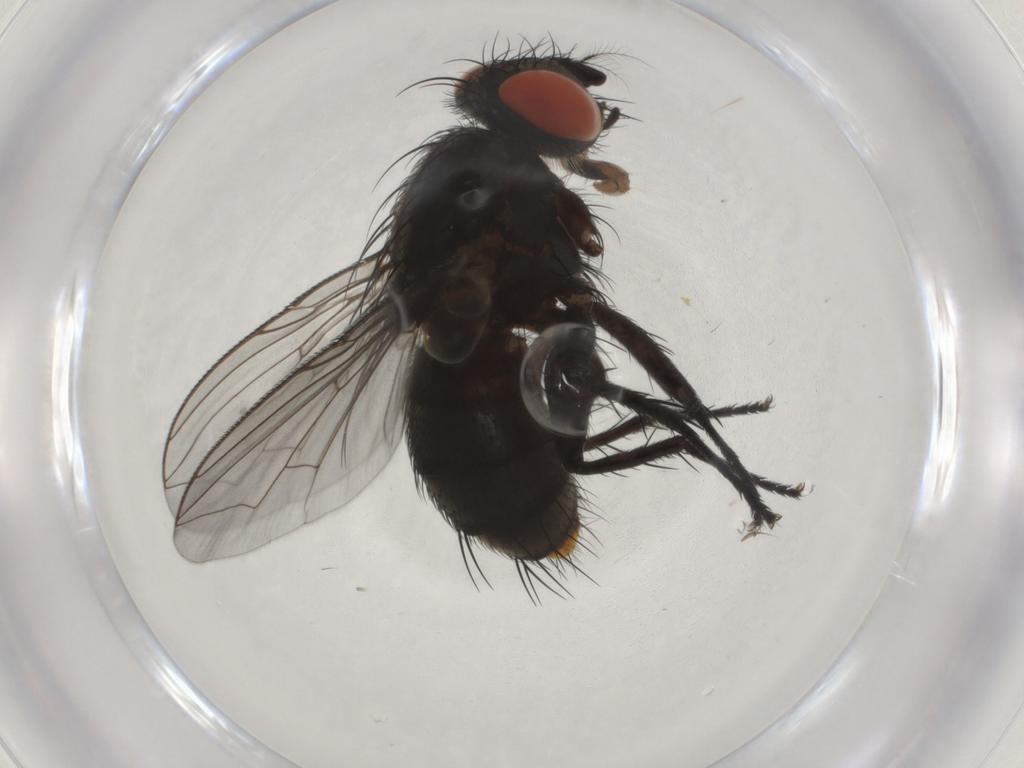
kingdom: Animalia
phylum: Arthropoda
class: Insecta
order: Diptera
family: Sarcophagidae
